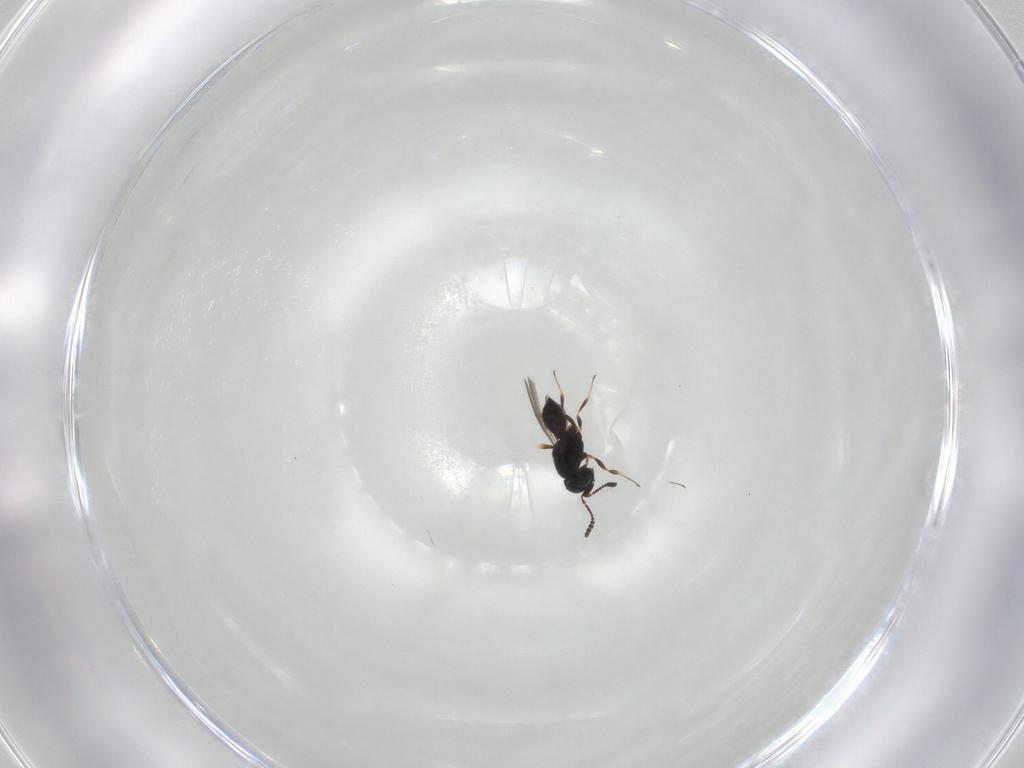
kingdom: Animalia
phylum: Arthropoda
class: Insecta
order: Hymenoptera
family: Scelionidae
